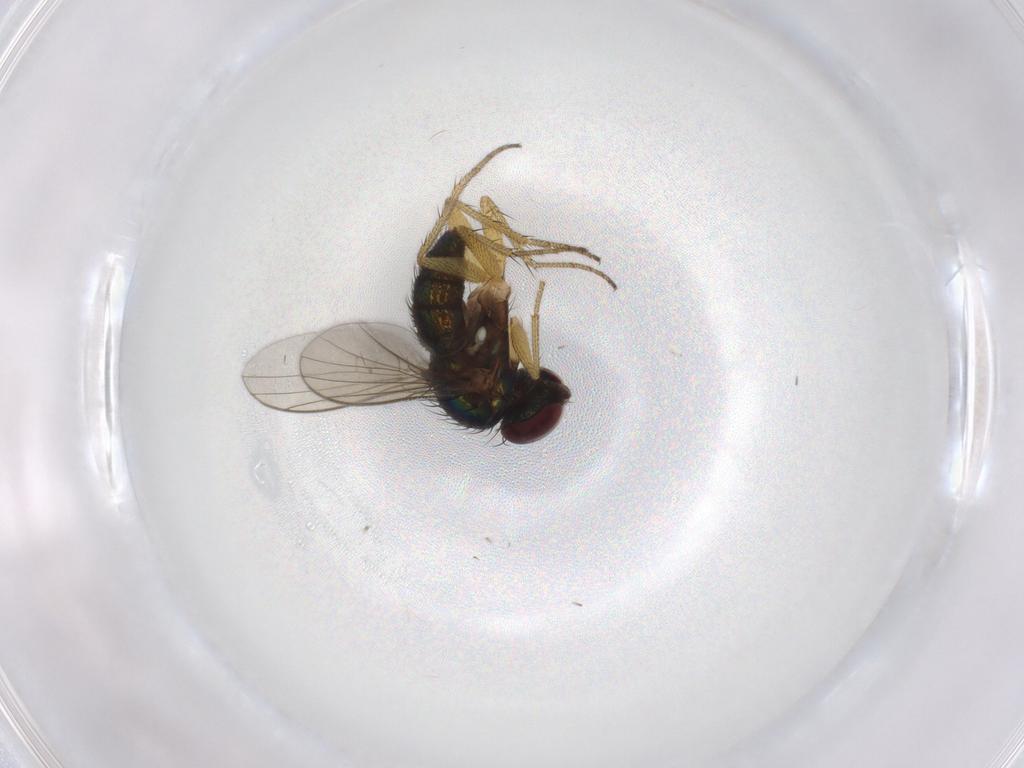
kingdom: Animalia
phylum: Arthropoda
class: Insecta
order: Diptera
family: Dolichopodidae
